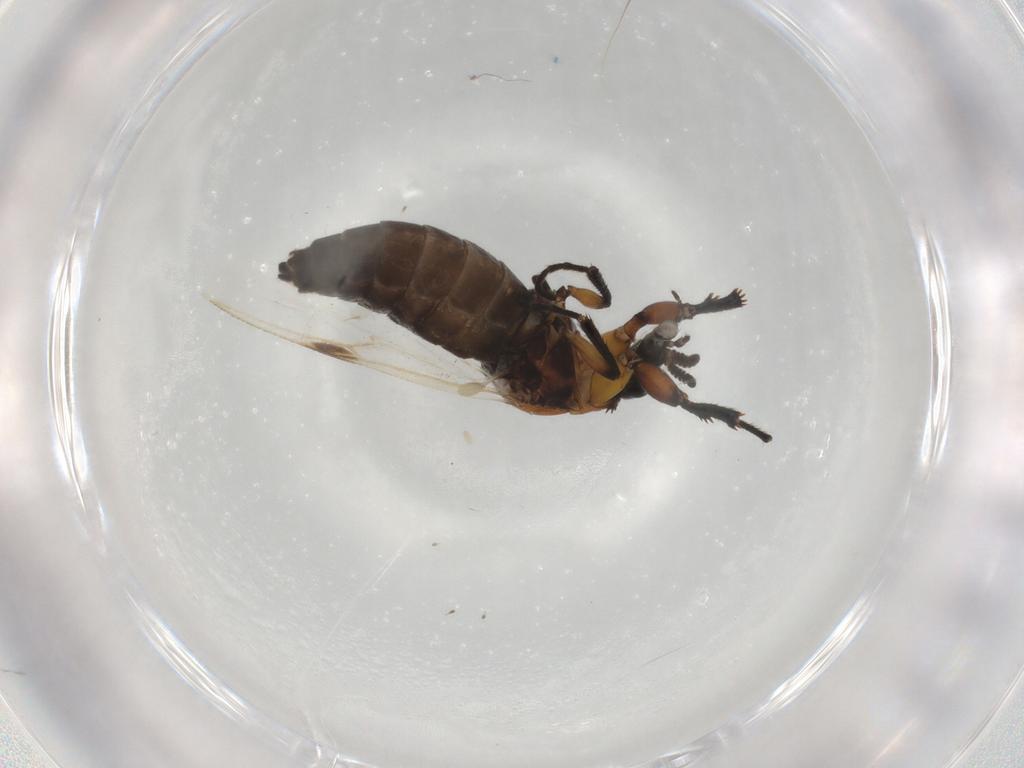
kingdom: Animalia
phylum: Arthropoda
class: Insecta
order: Diptera
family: Bibionidae
